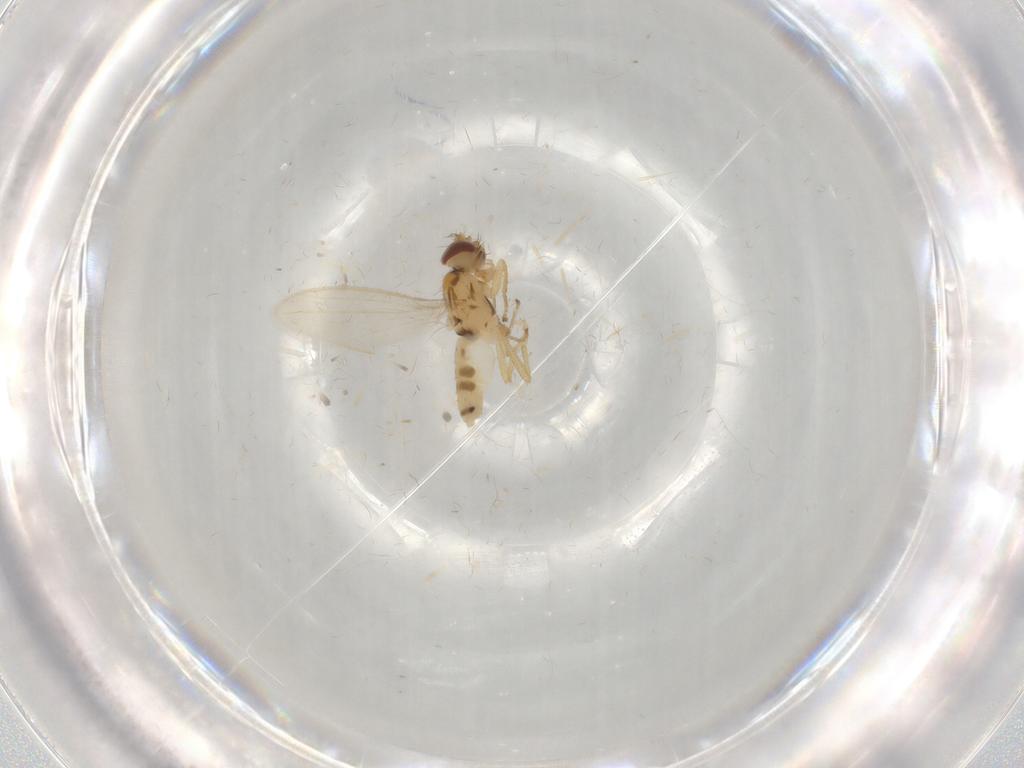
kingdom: Animalia
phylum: Arthropoda
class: Insecta
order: Diptera
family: Periscelididae
